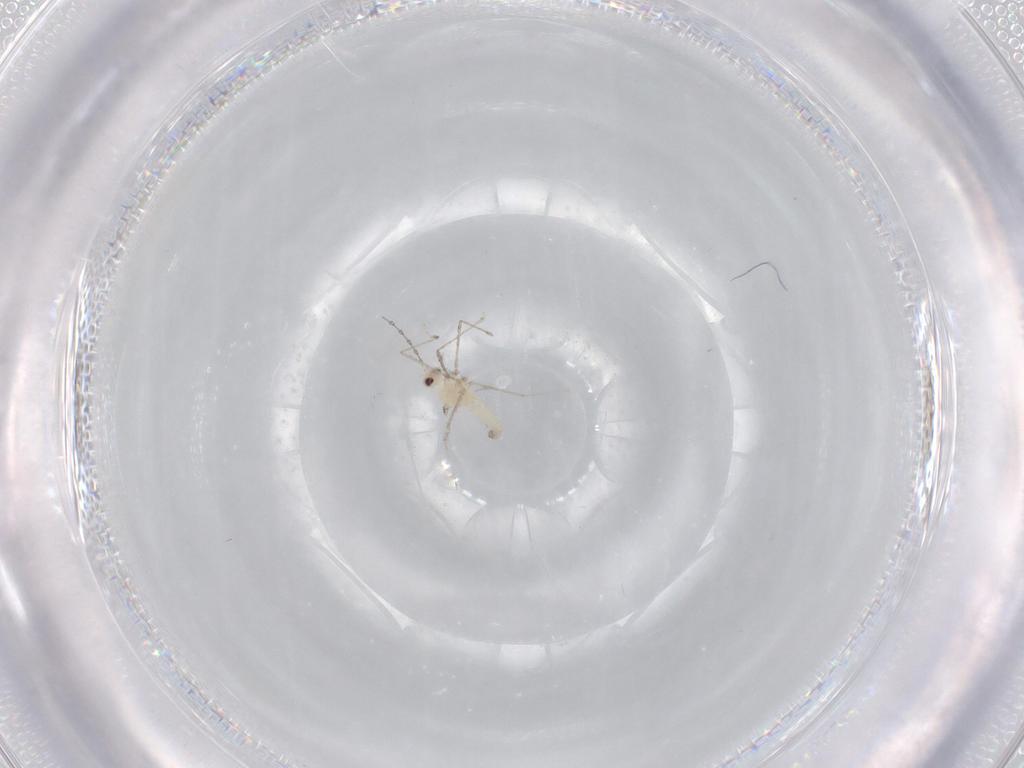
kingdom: Animalia
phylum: Arthropoda
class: Insecta
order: Diptera
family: Cecidomyiidae
